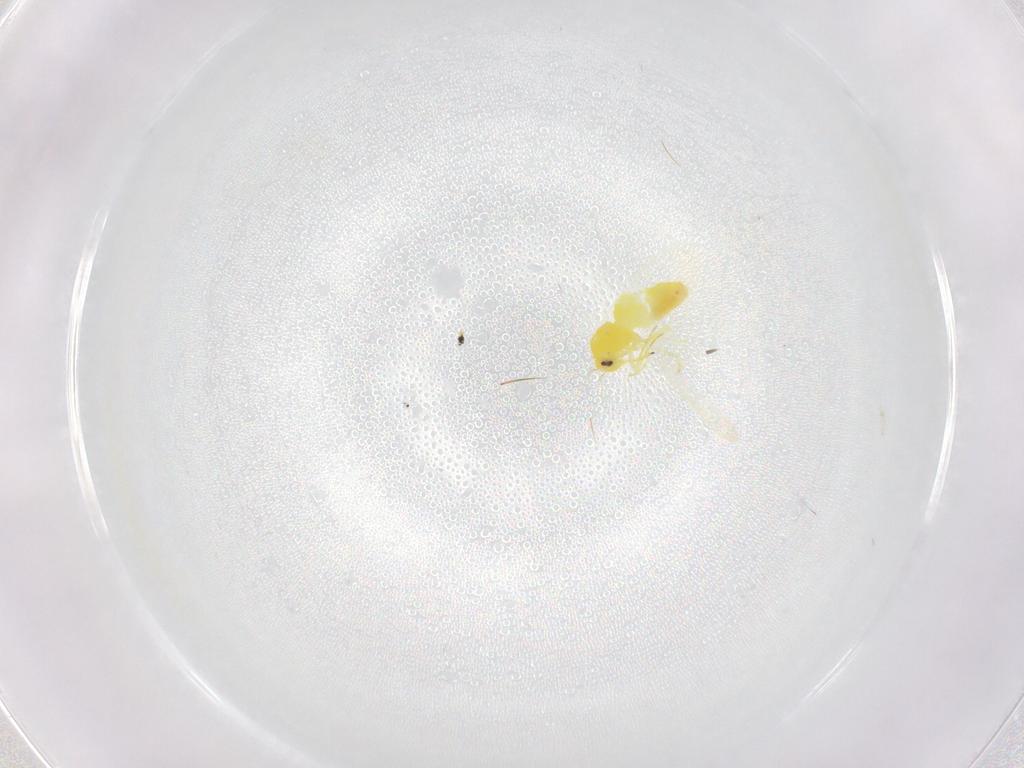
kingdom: Animalia
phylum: Arthropoda
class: Insecta
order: Hemiptera
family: Aleyrodidae
